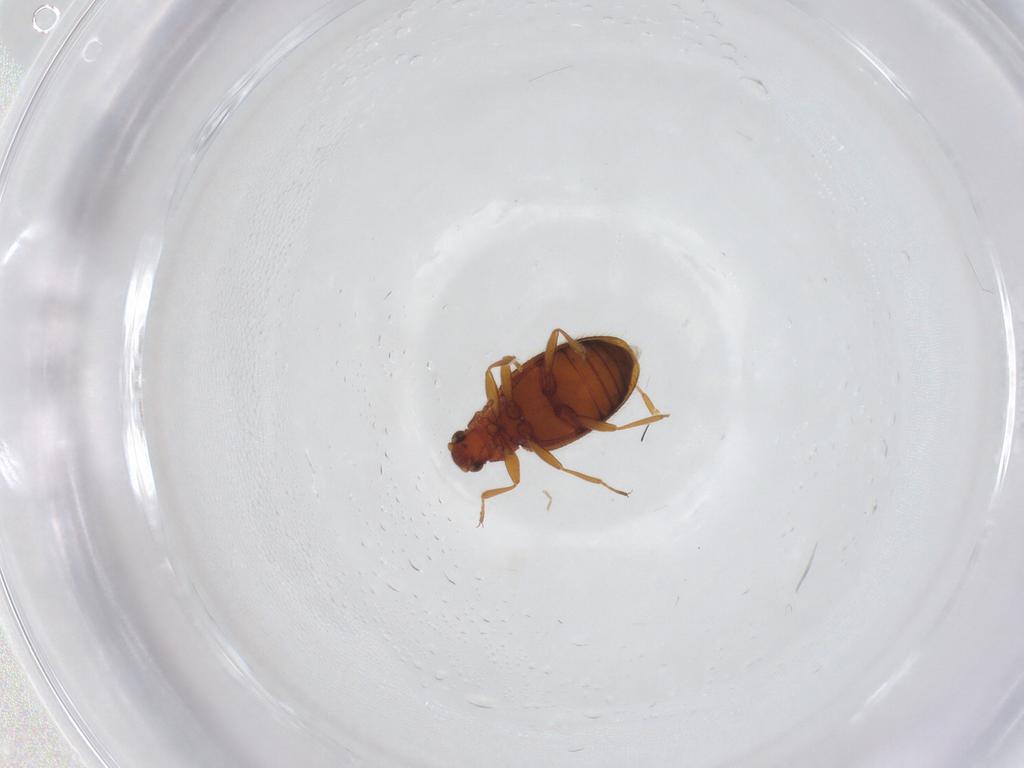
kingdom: Animalia
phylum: Arthropoda
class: Insecta
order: Coleoptera
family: Latridiidae
